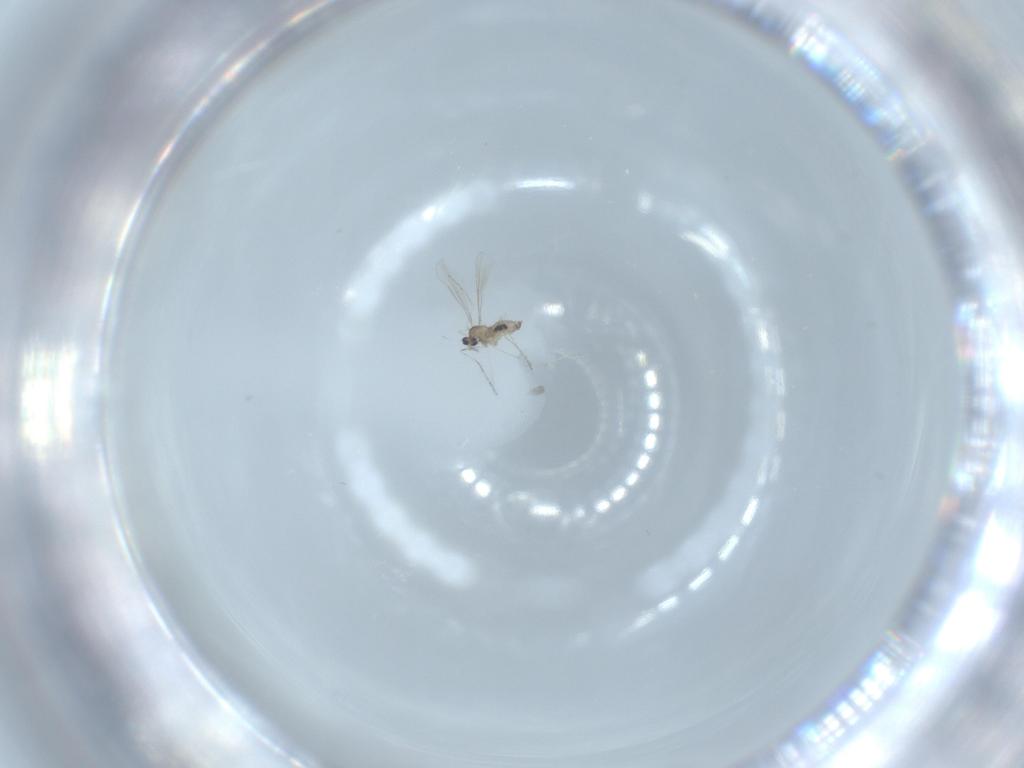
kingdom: Animalia
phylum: Arthropoda
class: Insecta
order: Diptera
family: Cecidomyiidae
